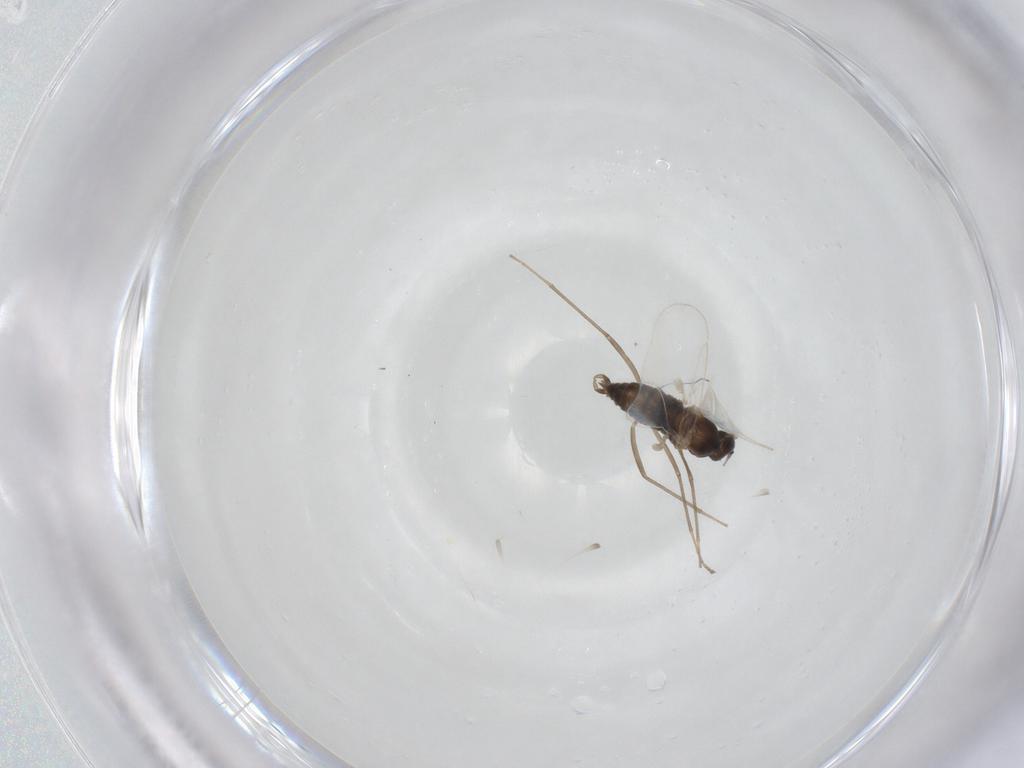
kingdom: Animalia
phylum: Arthropoda
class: Insecta
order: Diptera
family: Cecidomyiidae
